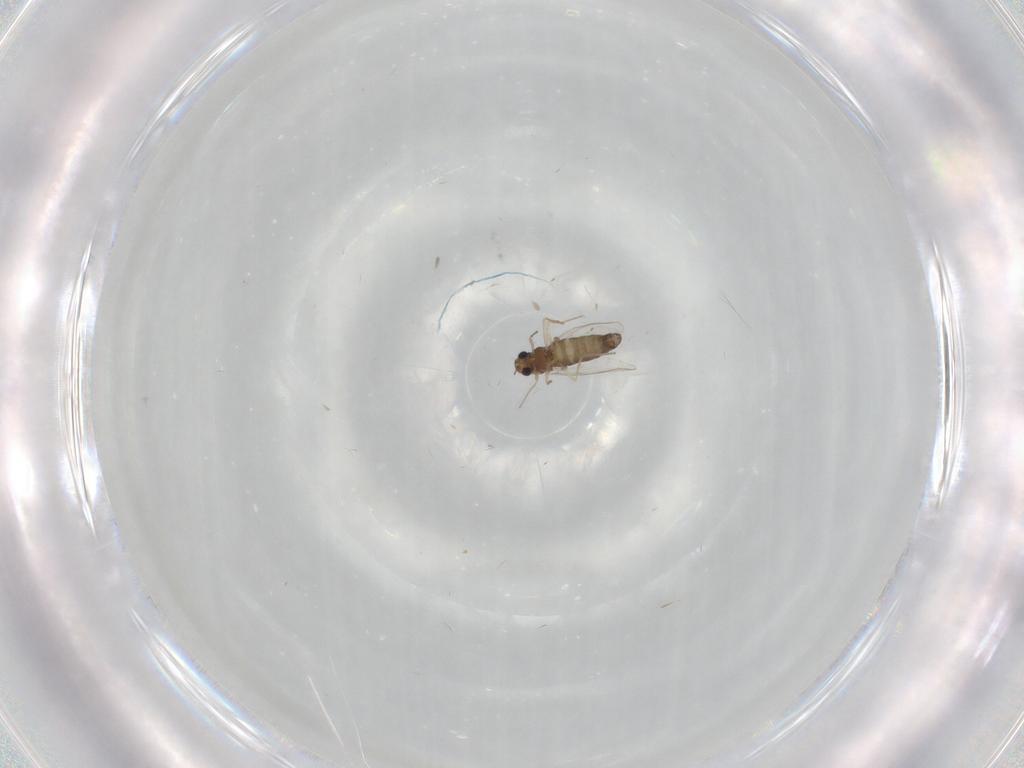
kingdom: Animalia
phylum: Arthropoda
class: Insecta
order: Diptera
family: Chironomidae
